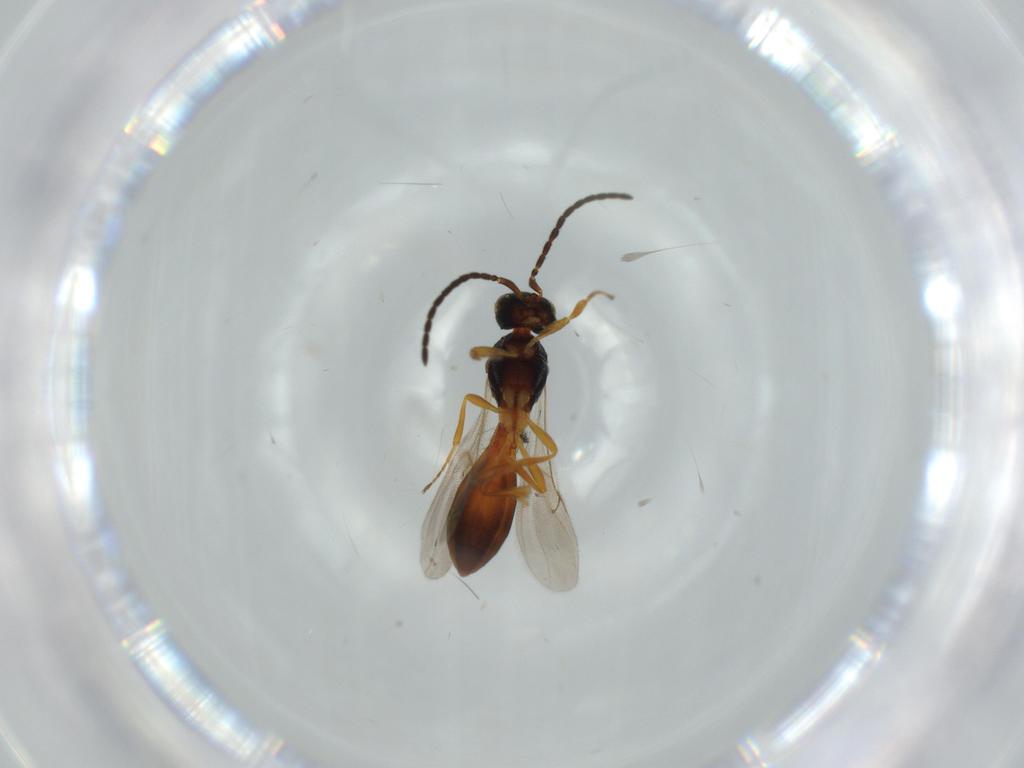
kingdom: Animalia
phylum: Arthropoda
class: Insecta
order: Hymenoptera
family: Scelionidae
